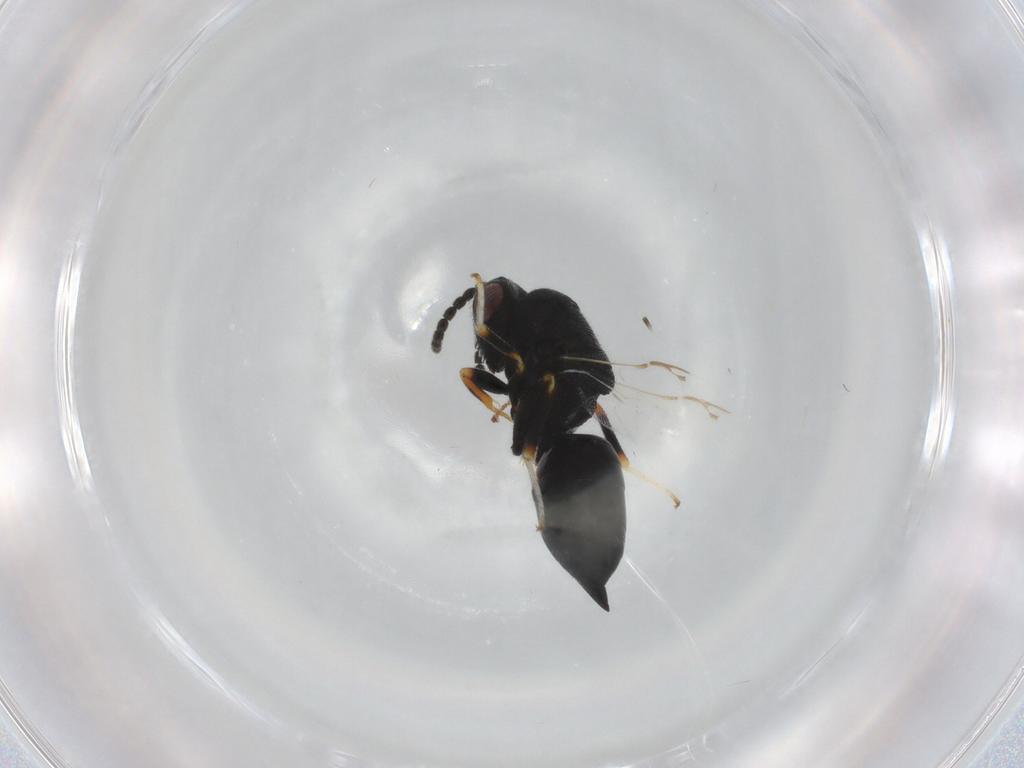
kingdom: Animalia
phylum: Arthropoda
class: Insecta
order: Hymenoptera
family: Eurytomidae
